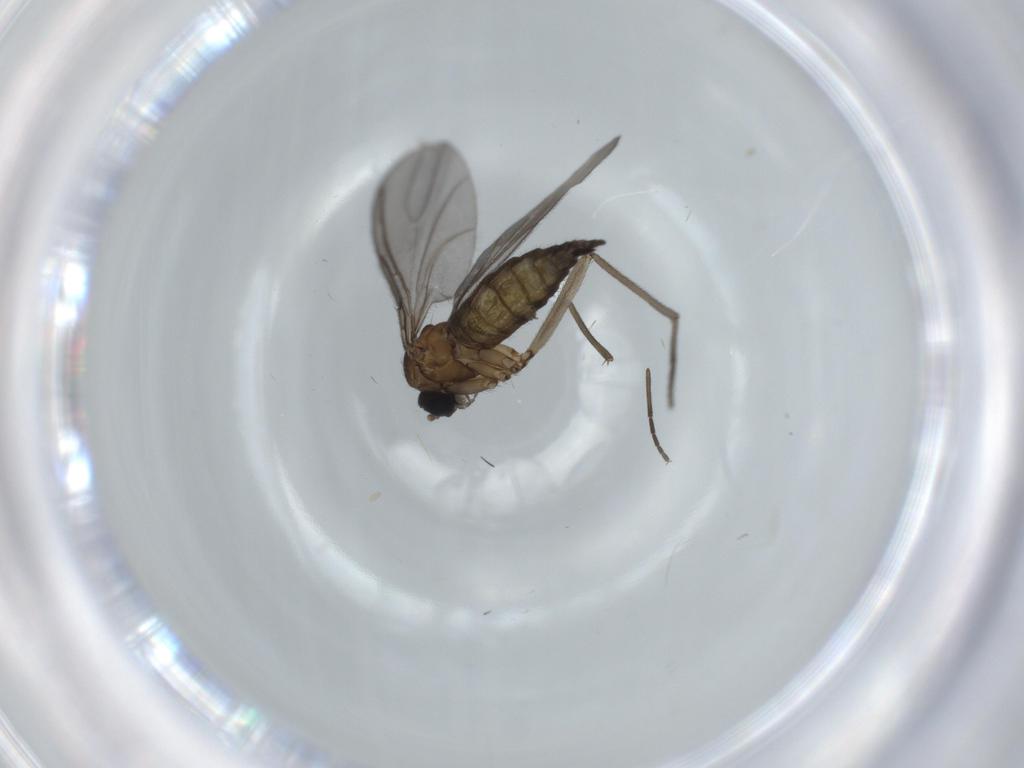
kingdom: Animalia
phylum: Arthropoda
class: Insecta
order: Diptera
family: Sciaridae
